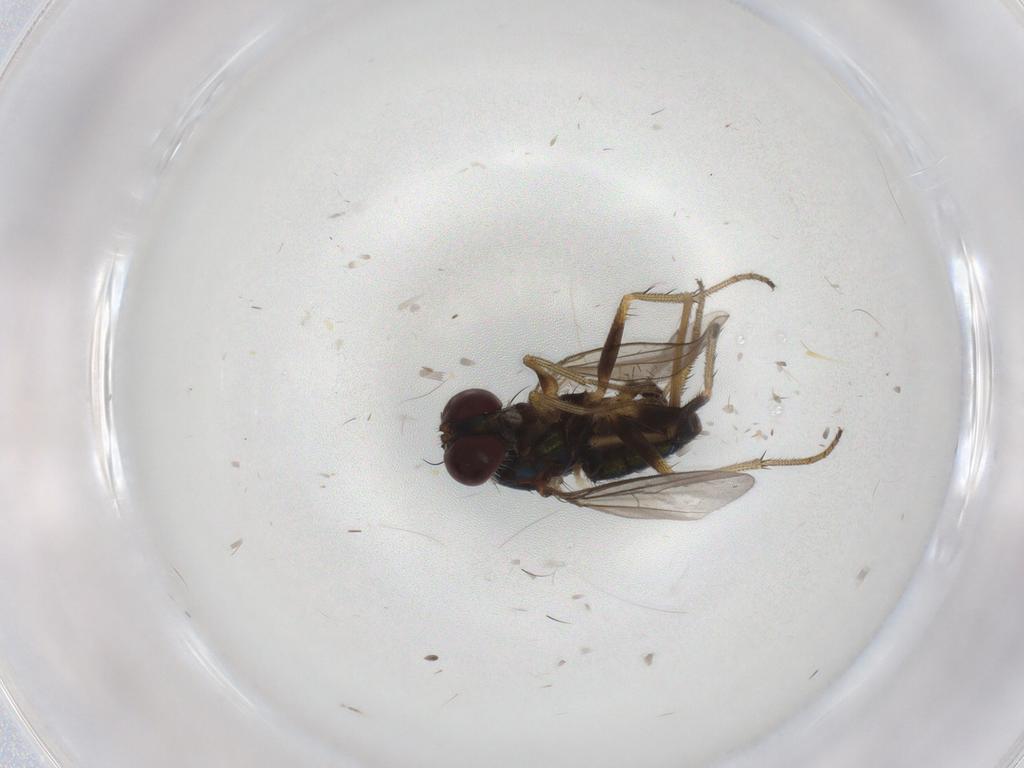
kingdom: Animalia
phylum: Arthropoda
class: Insecta
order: Diptera
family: Dolichopodidae
